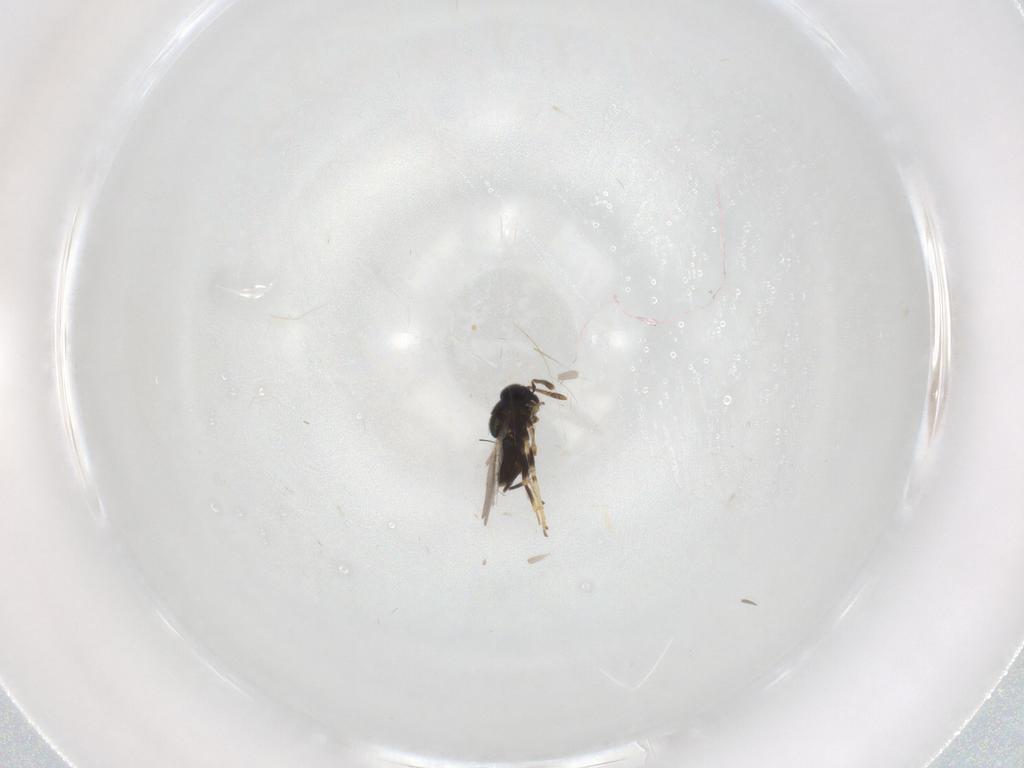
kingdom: Animalia
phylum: Arthropoda
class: Insecta
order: Hymenoptera
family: Encyrtidae
